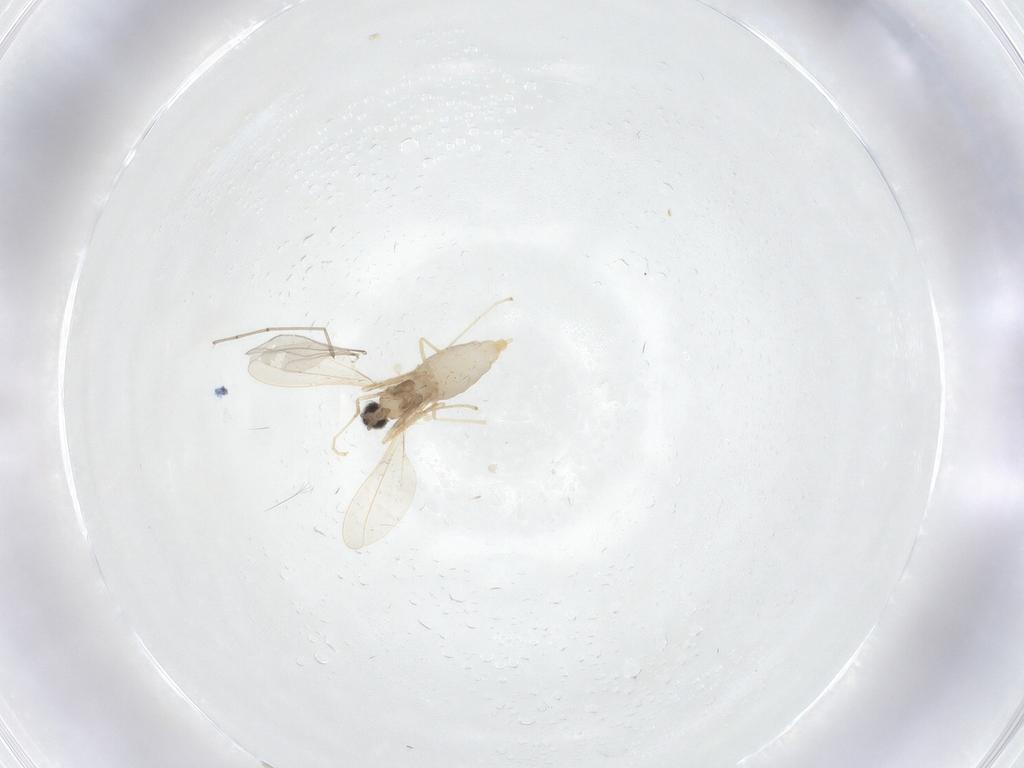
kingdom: Animalia
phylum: Arthropoda
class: Insecta
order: Diptera
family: Cecidomyiidae
